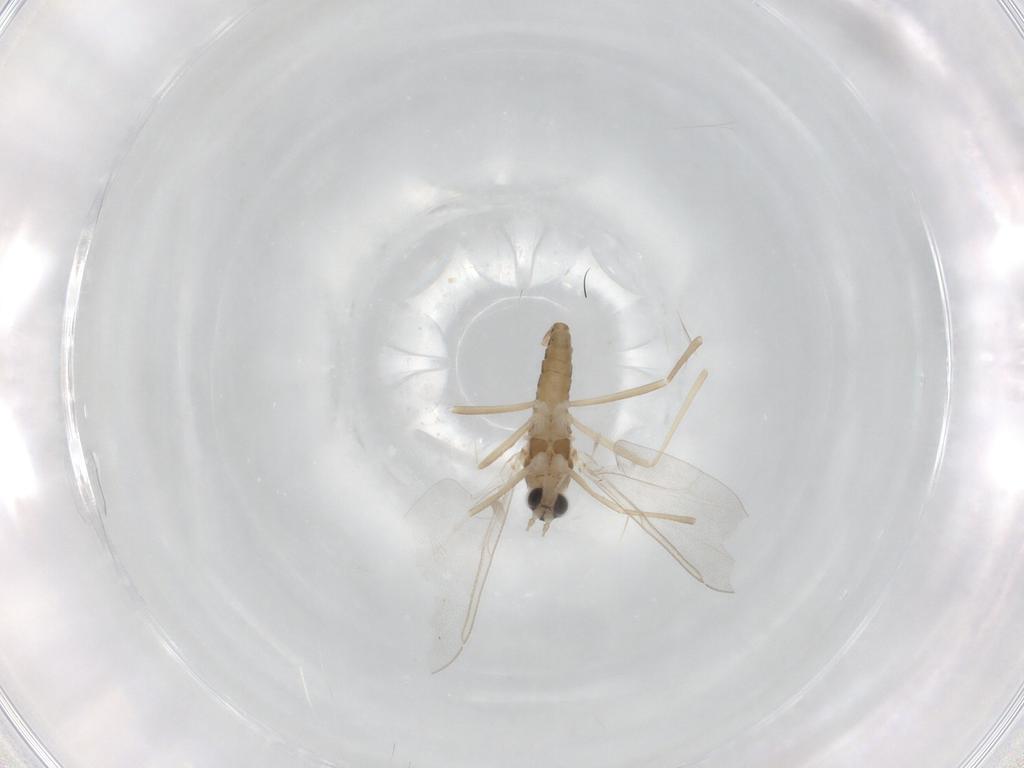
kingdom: Animalia
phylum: Arthropoda
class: Insecta
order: Diptera
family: Cecidomyiidae
